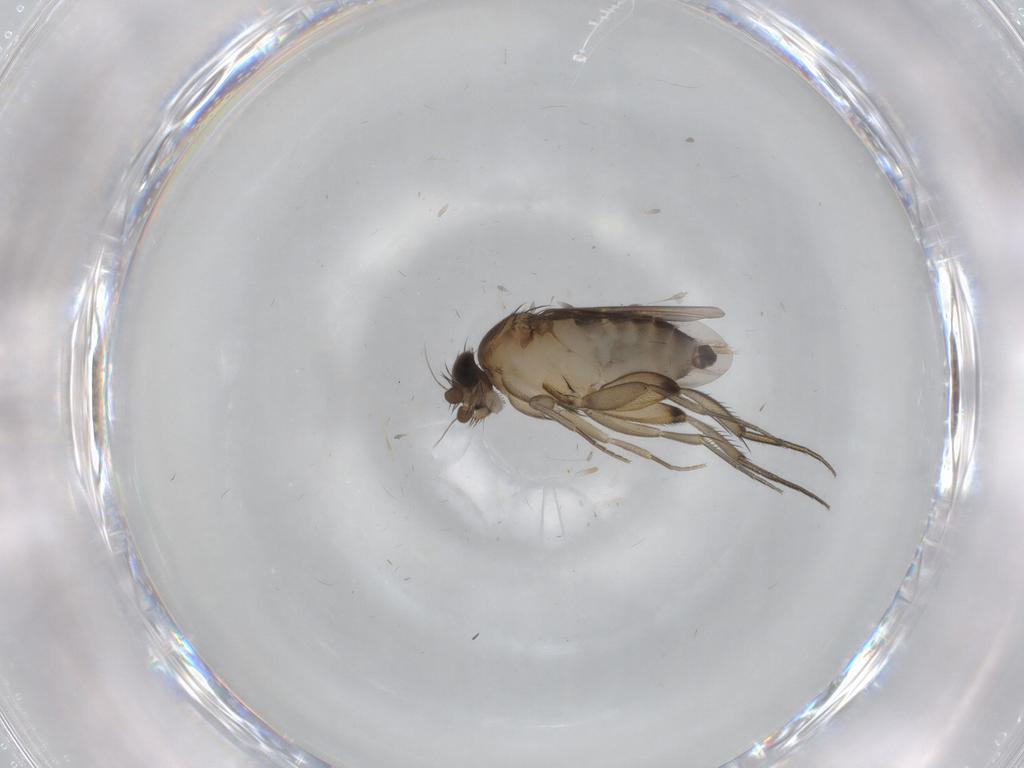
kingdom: Animalia
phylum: Arthropoda
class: Insecta
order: Diptera
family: Phoridae
